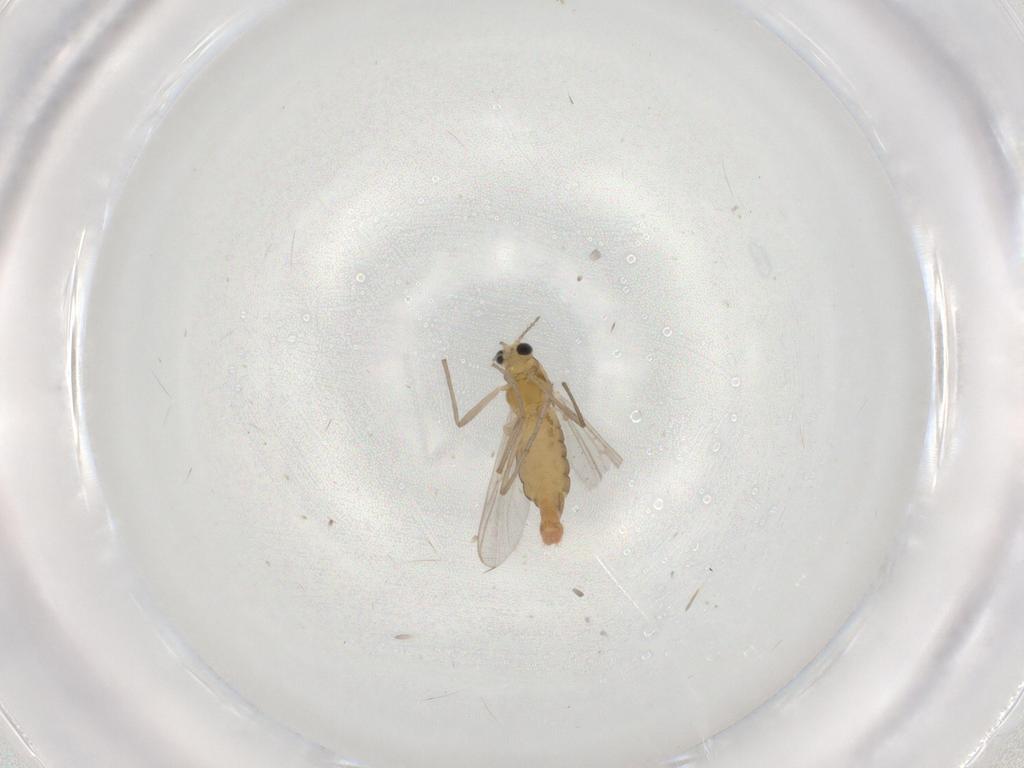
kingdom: Animalia
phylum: Arthropoda
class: Insecta
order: Diptera
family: Chironomidae
